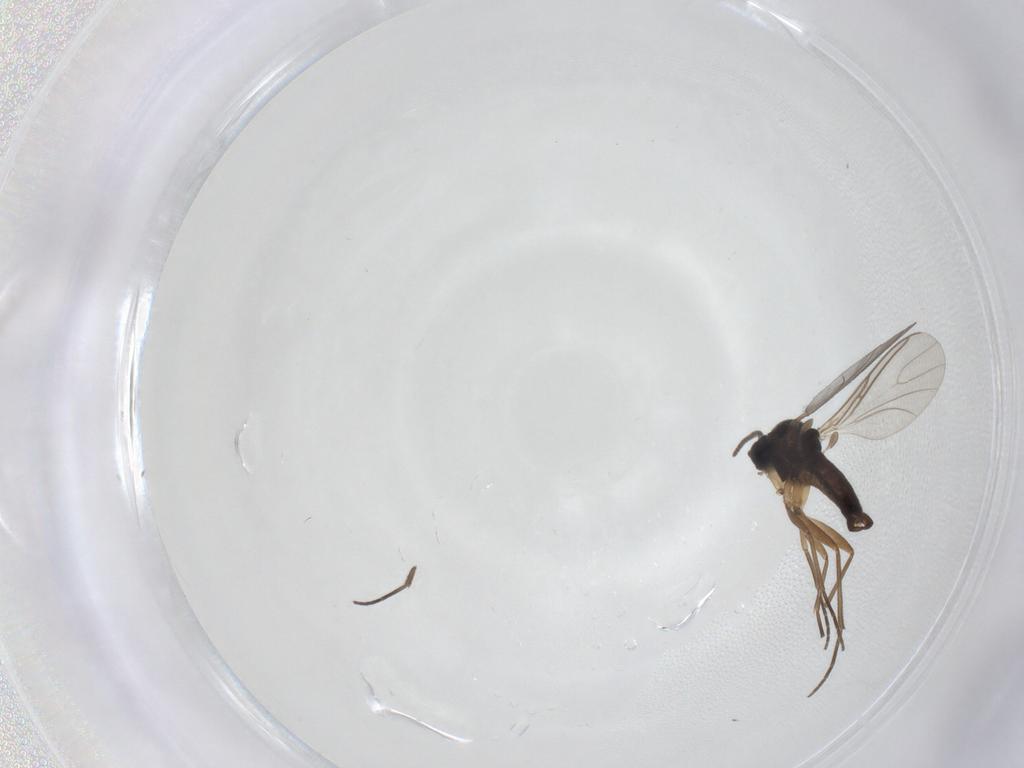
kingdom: Animalia
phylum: Arthropoda
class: Insecta
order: Diptera
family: Sciaridae
